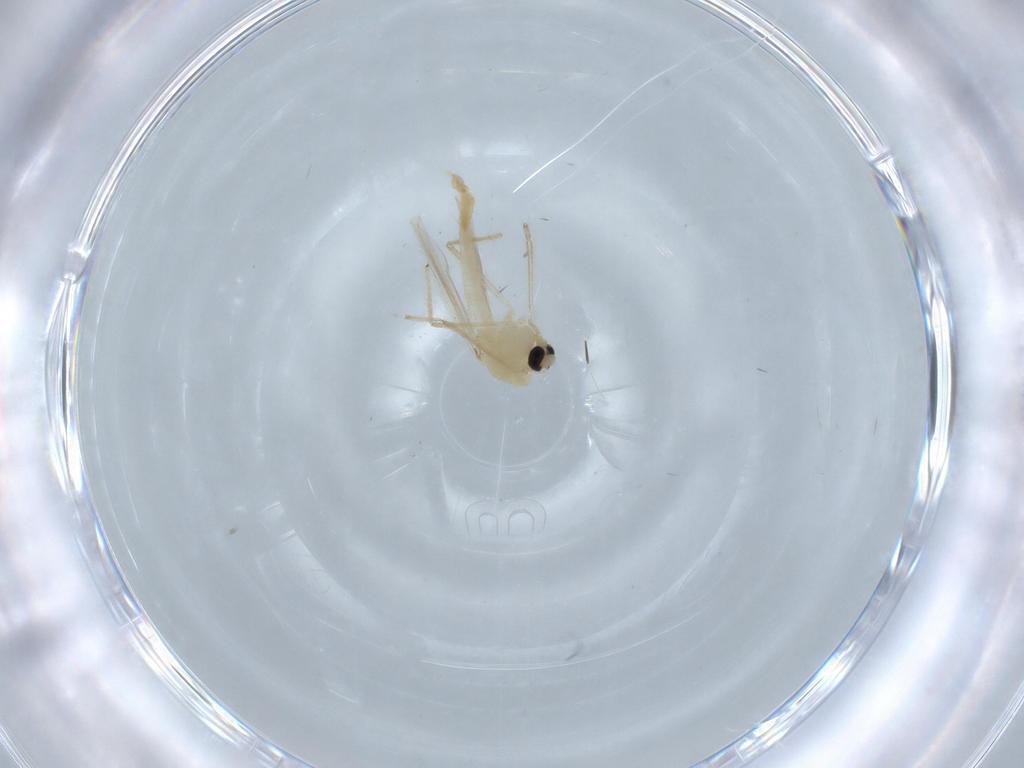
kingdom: Animalia
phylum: Arthropoda
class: Insecta
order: Diptera
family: Chironomidae
